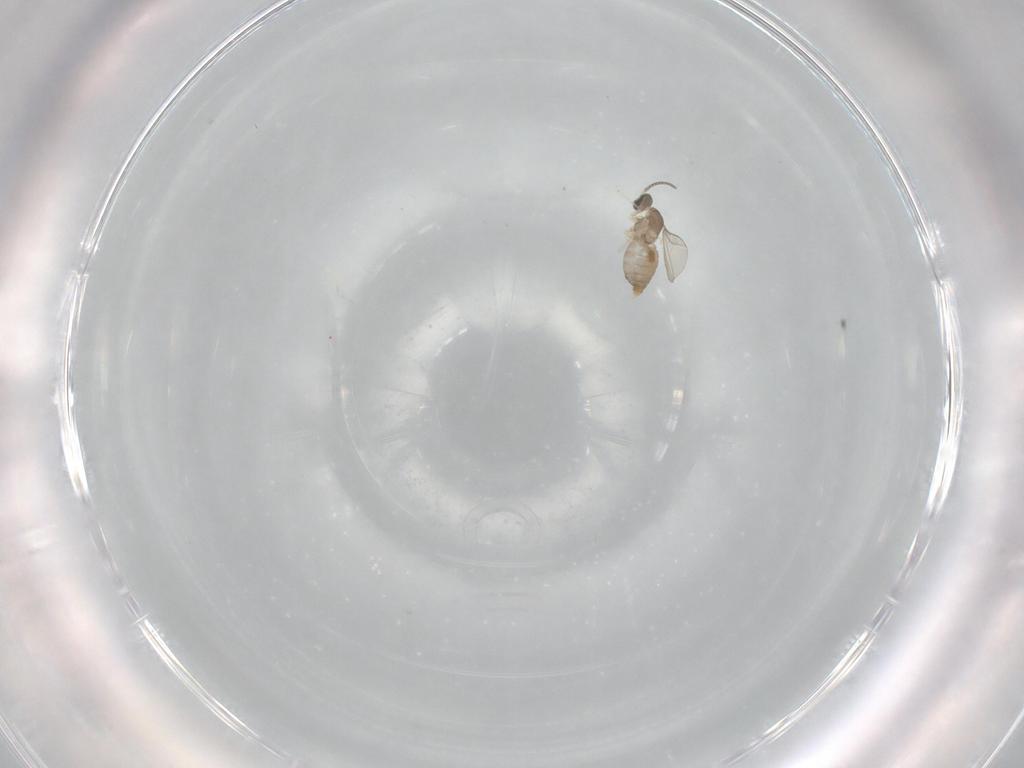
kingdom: Animalia
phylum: Arthropoda
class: Insecta
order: Diptera
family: Cecidomyiidae
